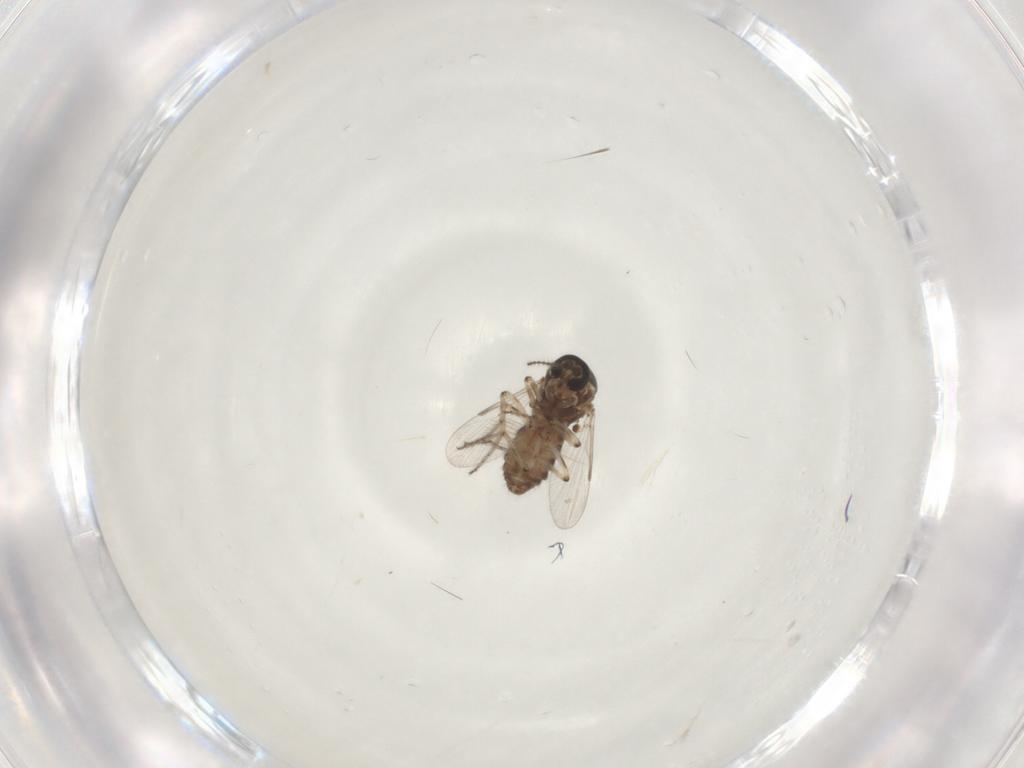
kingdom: Animalia
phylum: Arthropoda
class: Insecta
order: Diptera
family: Ceratopogonidae
